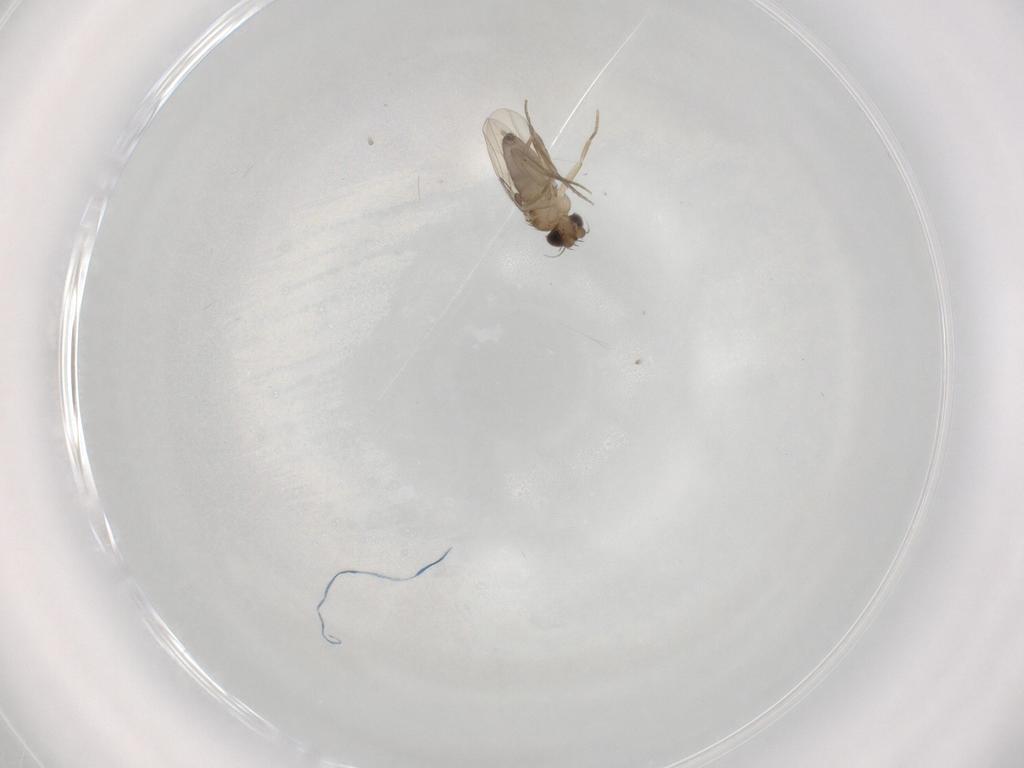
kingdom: Animalia
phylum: Arthropoda
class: Insecta
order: Diptera
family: Phoridae
